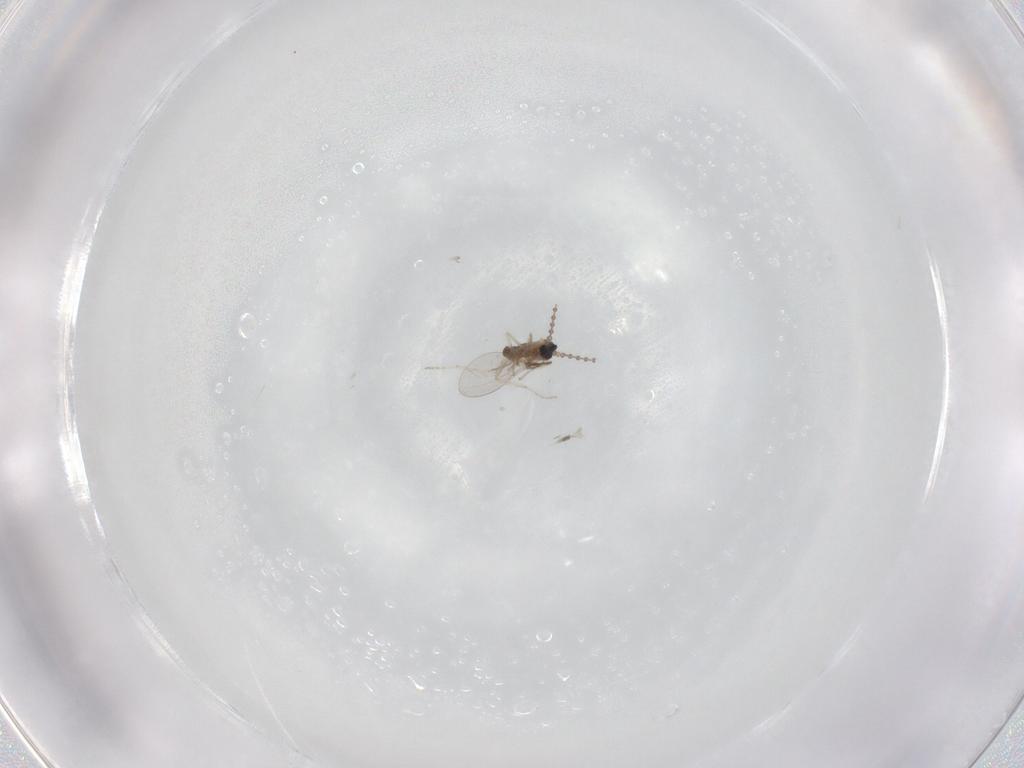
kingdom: Animalia
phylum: Arthropoda
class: Insecta
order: Diptera
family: Cecidomyiidae
